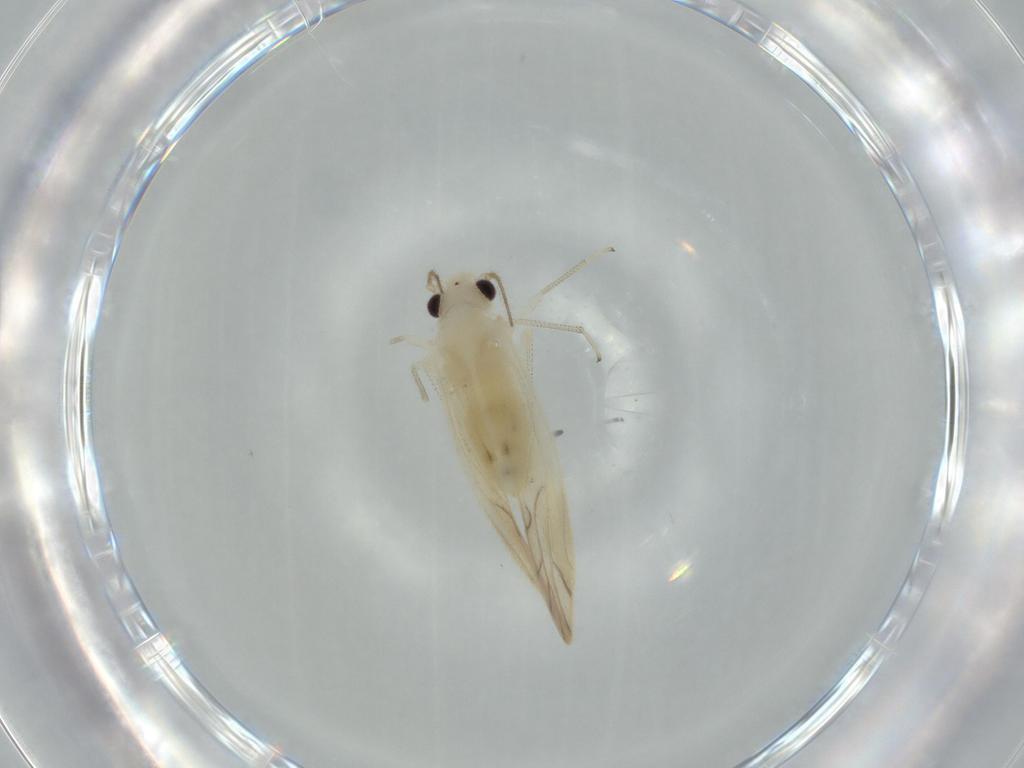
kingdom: Animalia
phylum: Arthropoda
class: Insecta
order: Psocodea
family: Caeciliusidae
